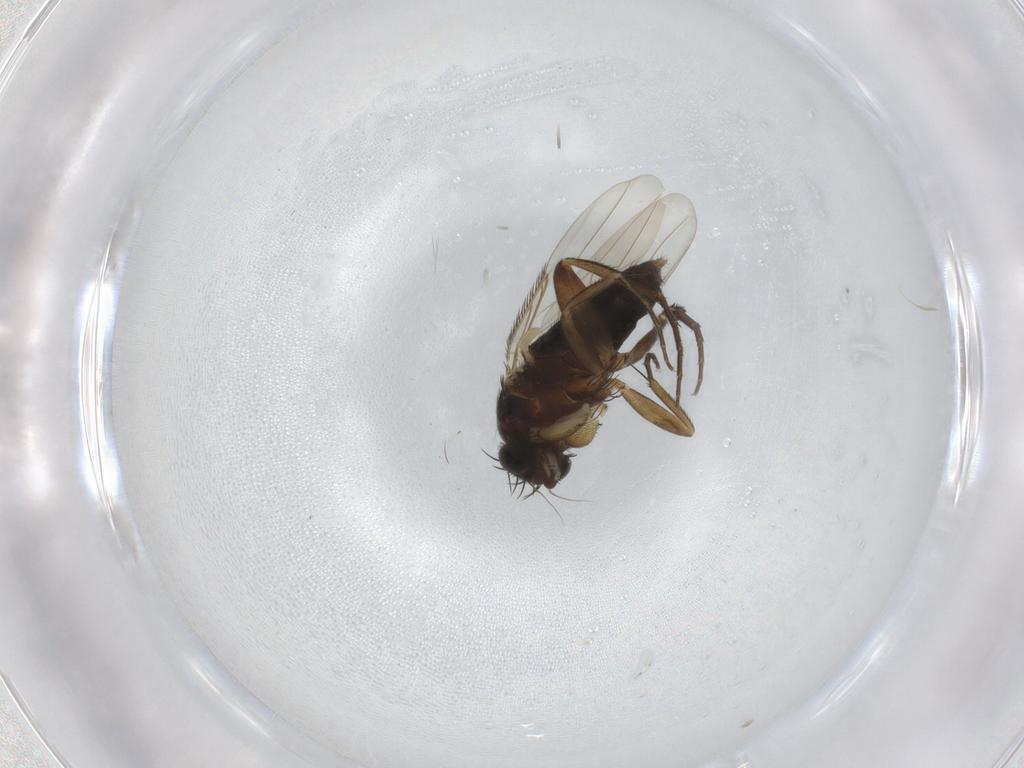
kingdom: Animalia
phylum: Arthropoda
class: Insecta
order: Diptera
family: Phoridae
